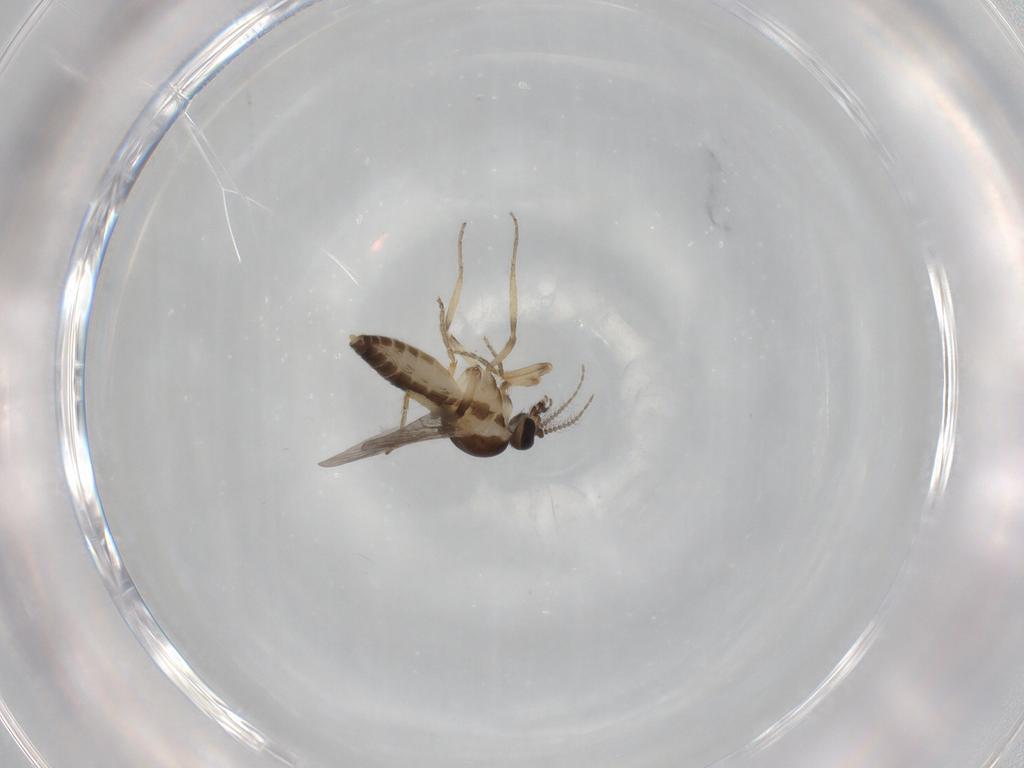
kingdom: Animalia
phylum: Arthropoda
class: Insecta
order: Diptera
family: Ceratopogonidae
